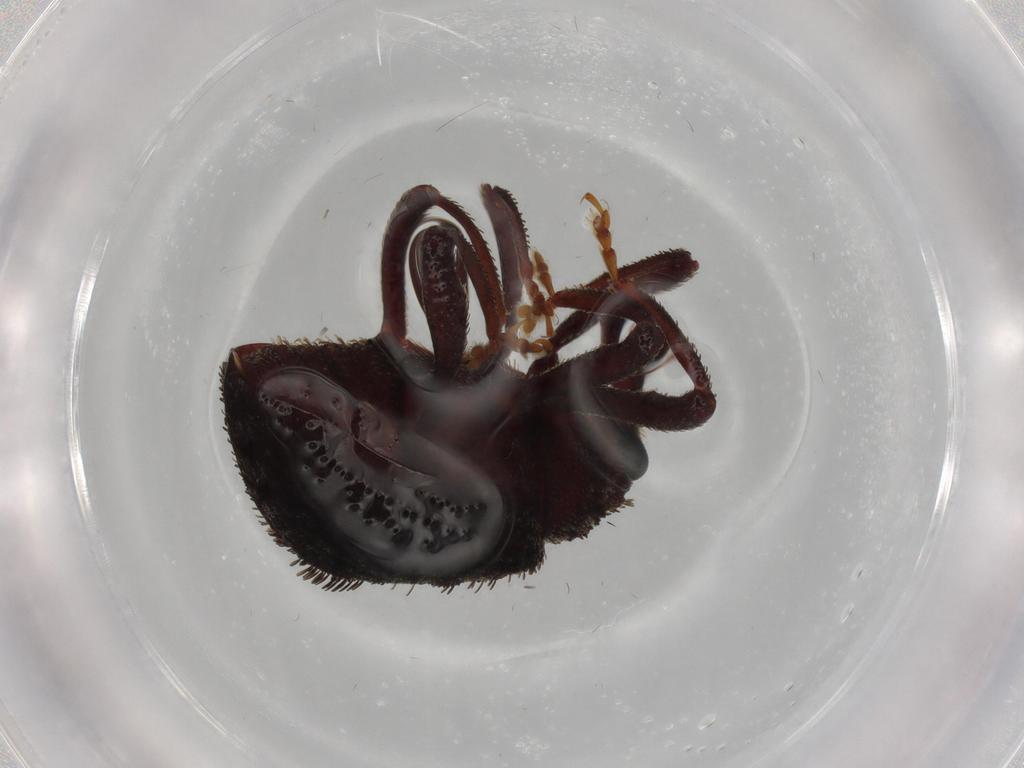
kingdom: Animalia
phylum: Arthropoda
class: Insecta
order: Coleoptera
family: Curculionidae
